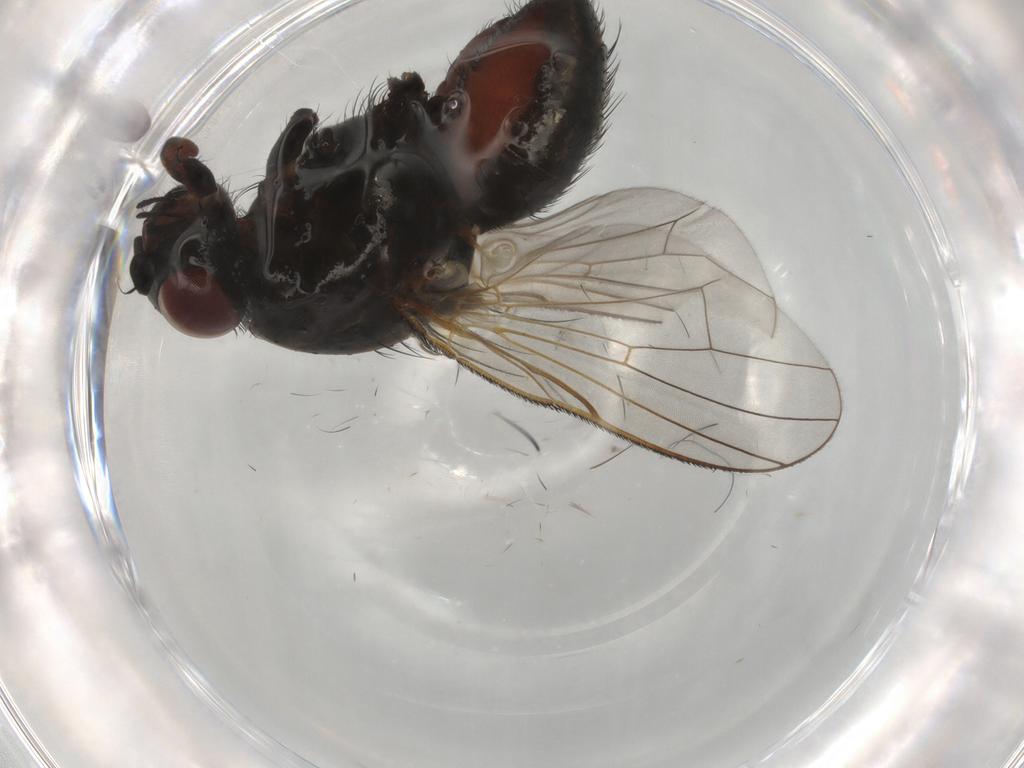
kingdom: Animalia
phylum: Arthropoda
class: Insecta
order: Diptera
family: Anthomyiidae
